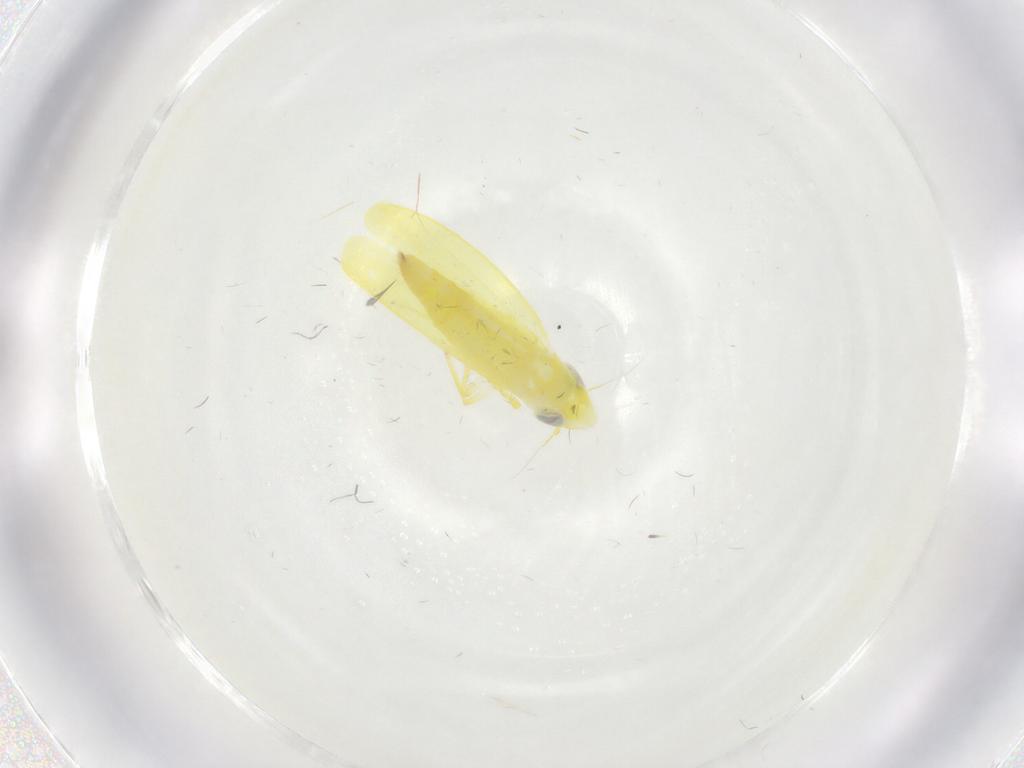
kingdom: Animalia
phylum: Arthropoda
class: Insecta
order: Hemiptera
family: Cicadellidae
